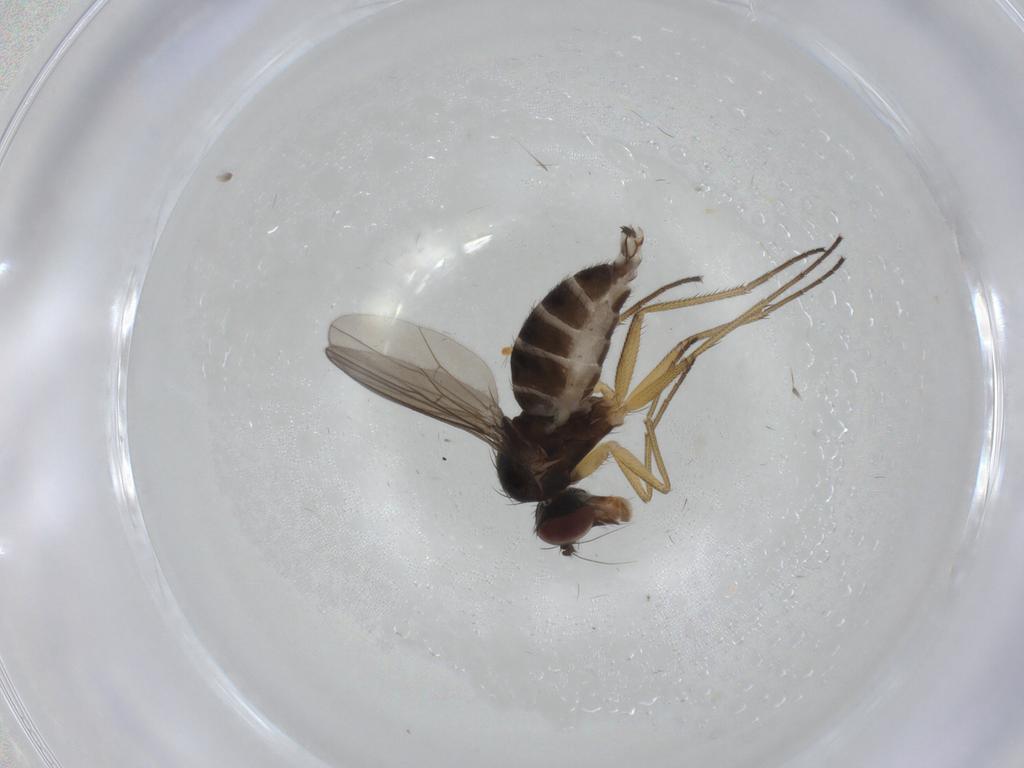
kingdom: Animalia
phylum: Arthropoda
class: Insecta
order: Diptera
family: Dolichopodidae
